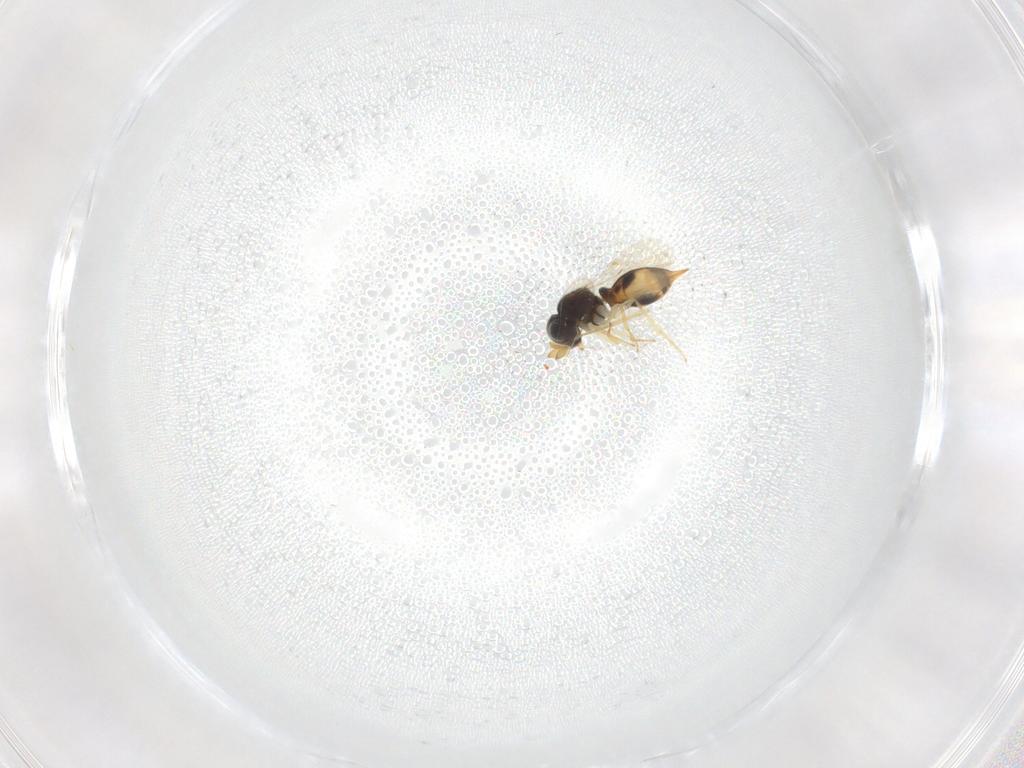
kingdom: Animalia
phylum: Arthropoda
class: Insecta
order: Hymenoptera
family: Scelionidae
